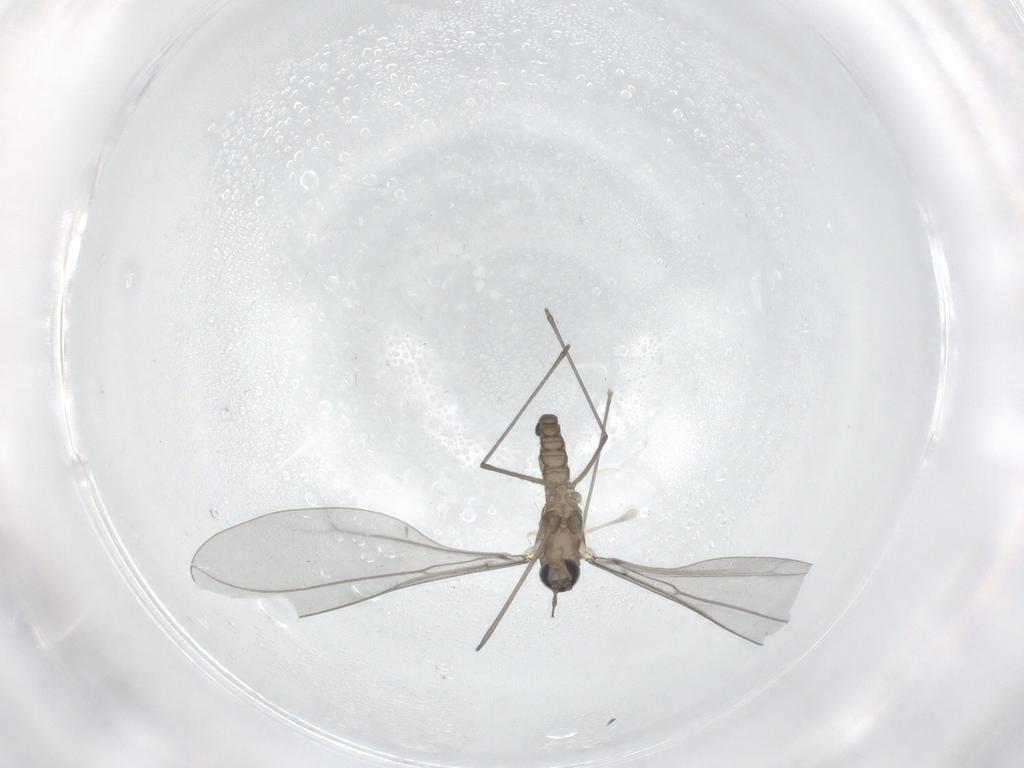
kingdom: Animalia
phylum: Arthropoda
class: Insecta
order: Diptera
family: Cecidomyiidae
